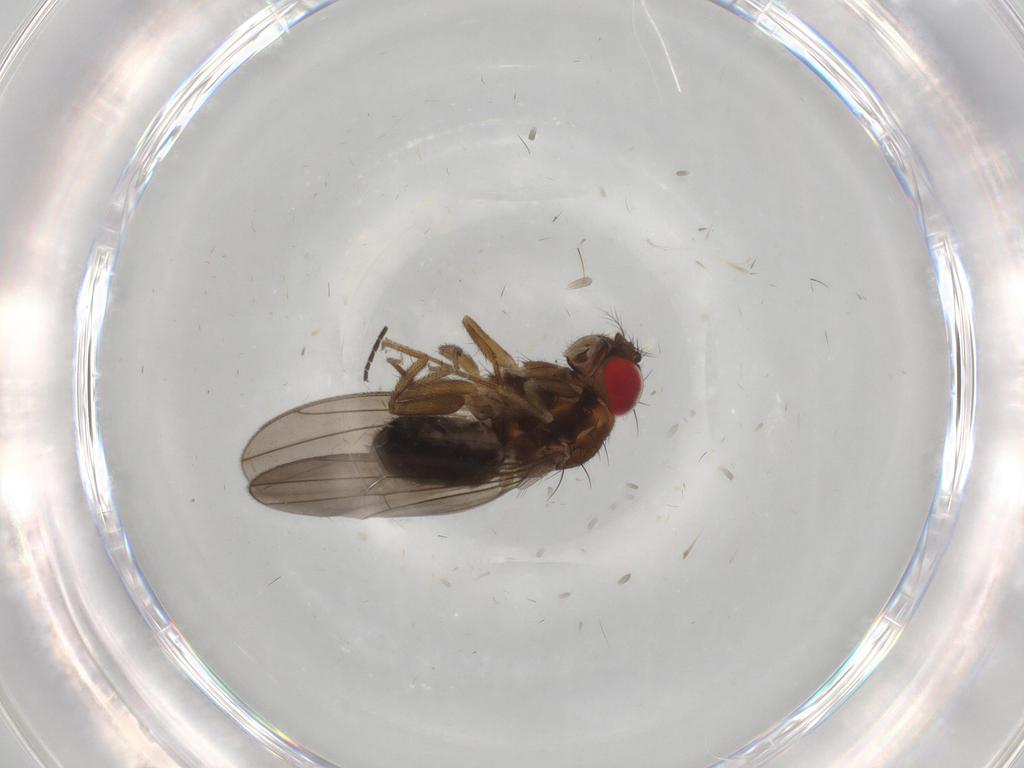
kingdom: Animalia
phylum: Arthropoda
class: Insecta
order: Diptera
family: Drosophilidae
